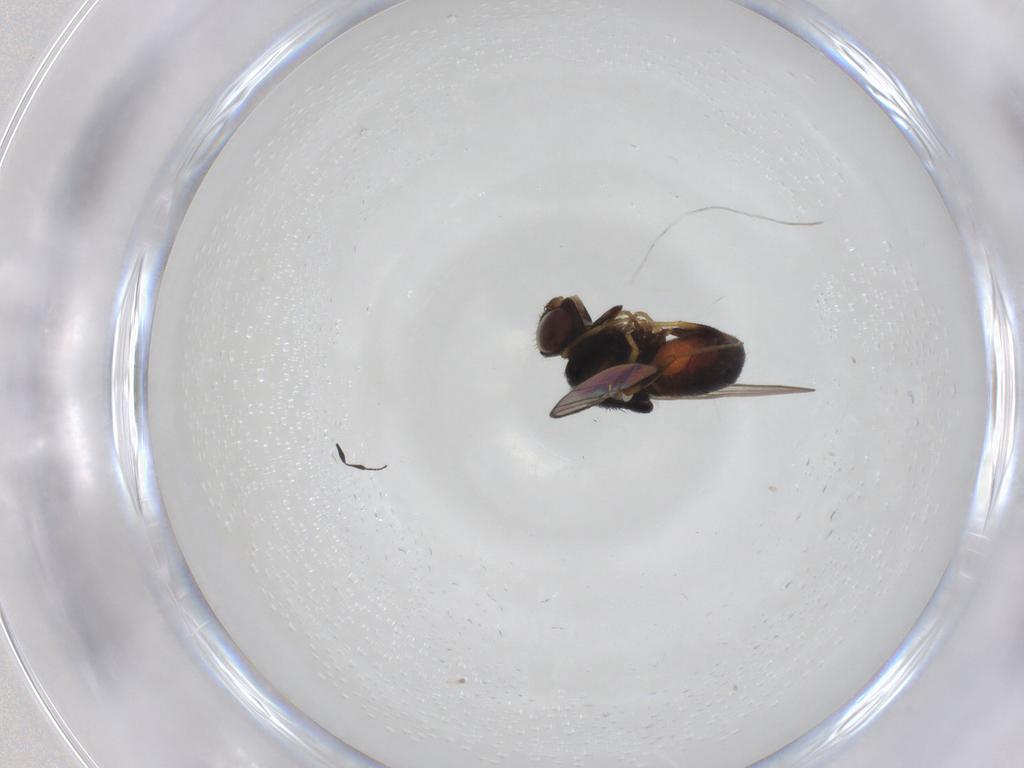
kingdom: Animalia
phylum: Arthropoda
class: Insecta
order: Diptera
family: Chloropidae
